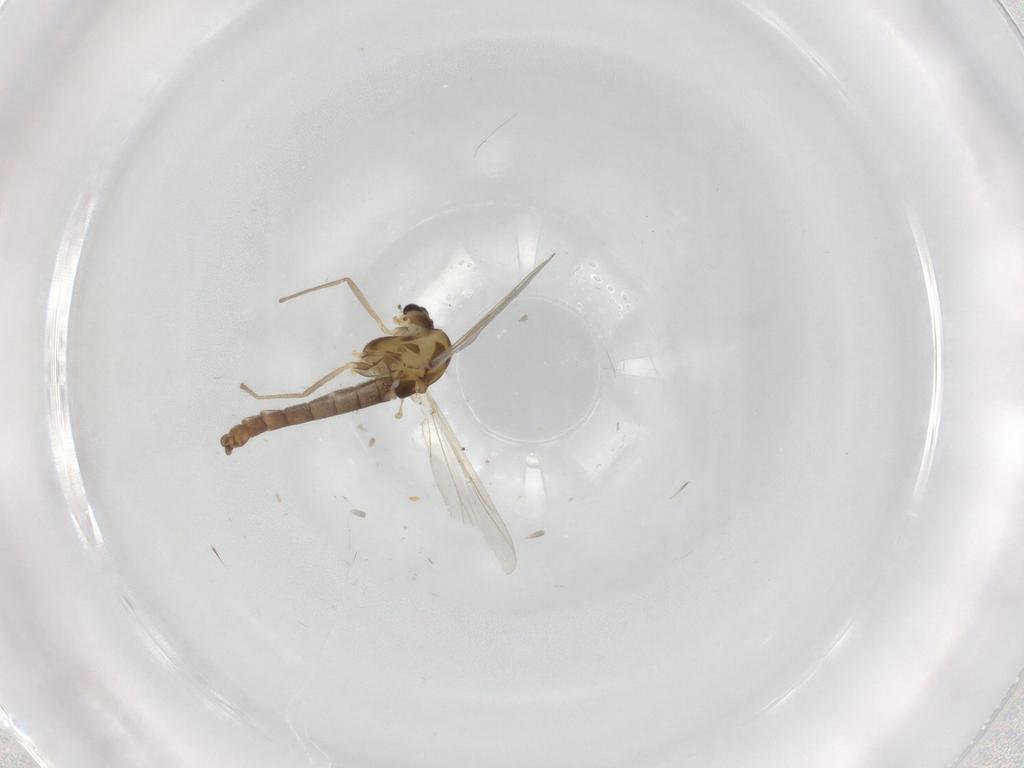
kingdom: Animalia
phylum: Arthropoda
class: Insecta
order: Diptera
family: Chironomidae
